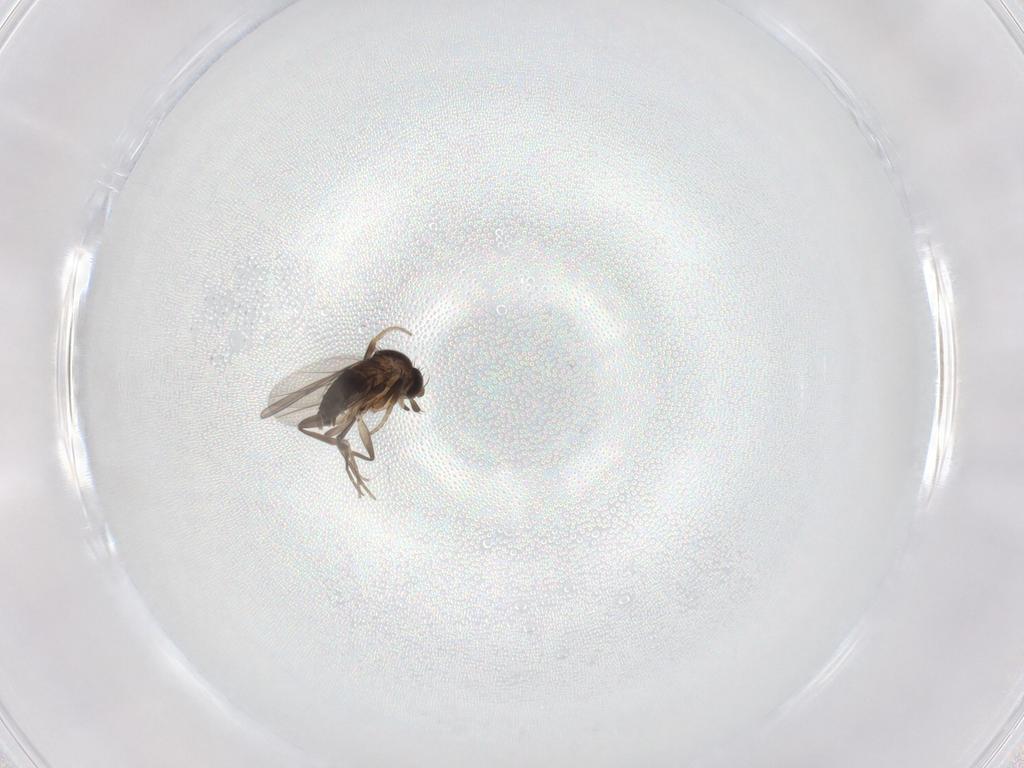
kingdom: Animalia
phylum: Arthropoda
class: Insecta
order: Diptera
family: Phoridae
